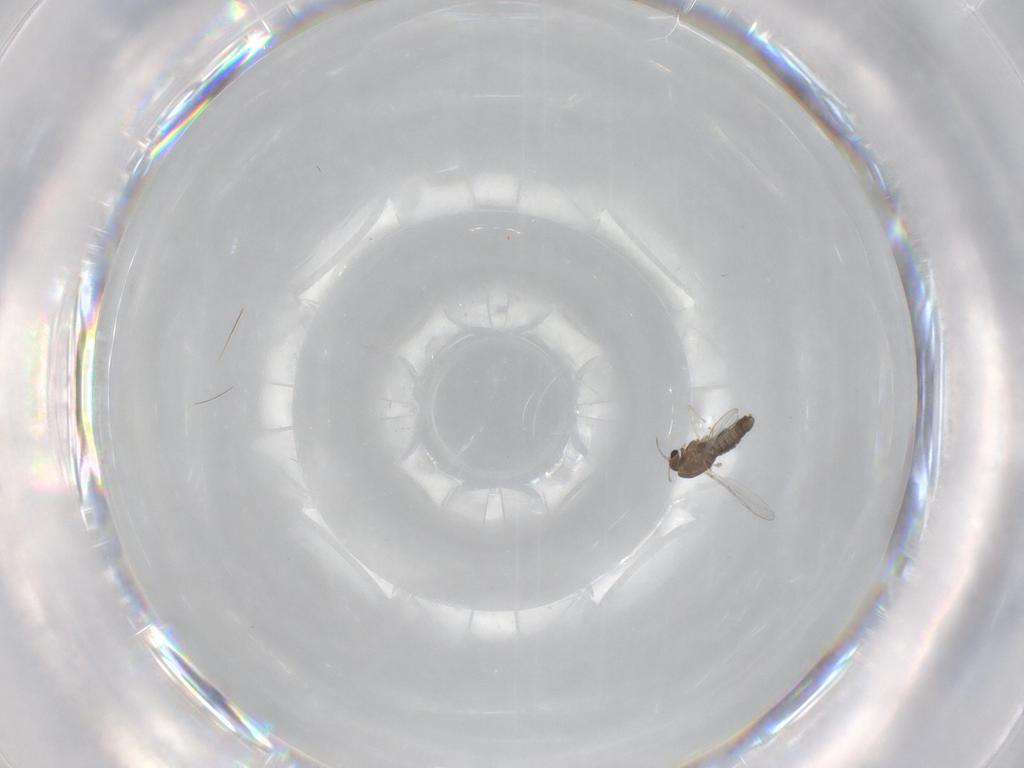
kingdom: Animalia
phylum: Arthropoda
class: Insecta
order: Diptera
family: Chironomidae
